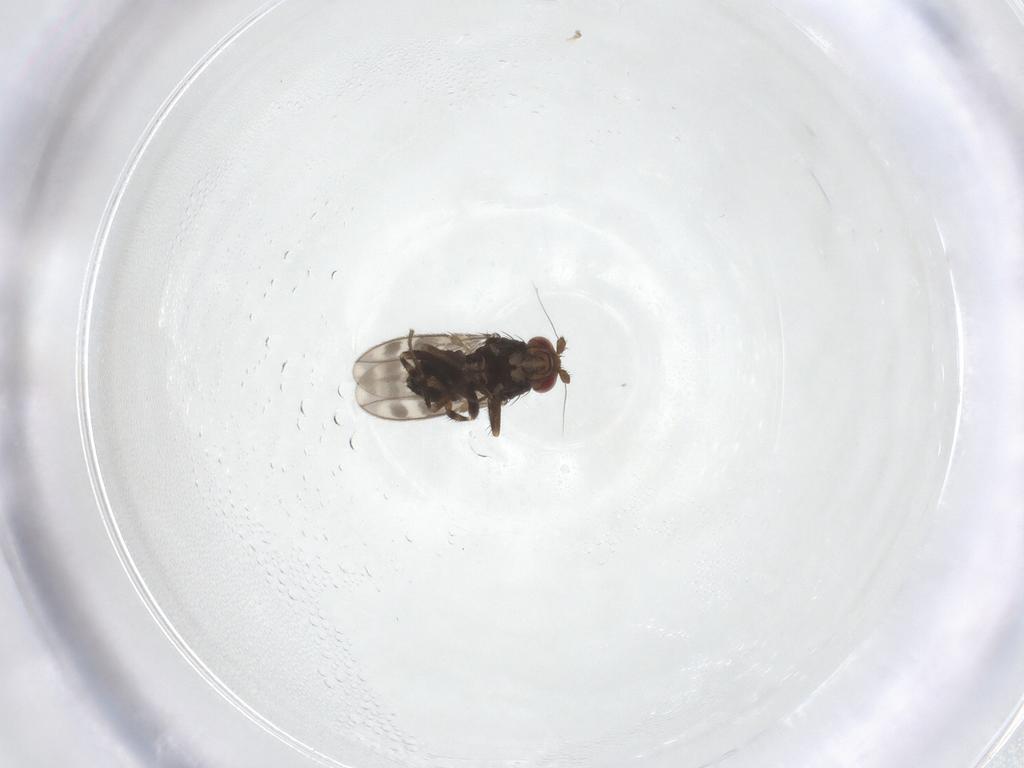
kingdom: Animalia
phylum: Arthropoda
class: Insecta
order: Diptera
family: Sphaeroceridae
